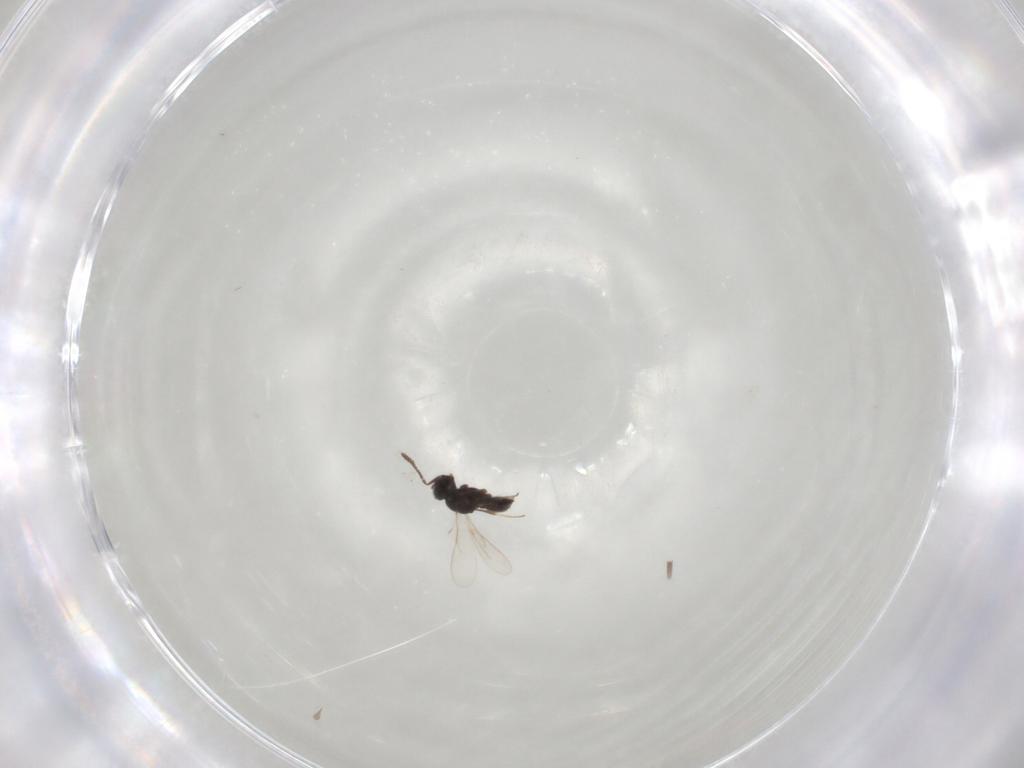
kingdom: Animalia
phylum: Arthropoda
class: Insecta
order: Hymenoptera
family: Scelionidae
